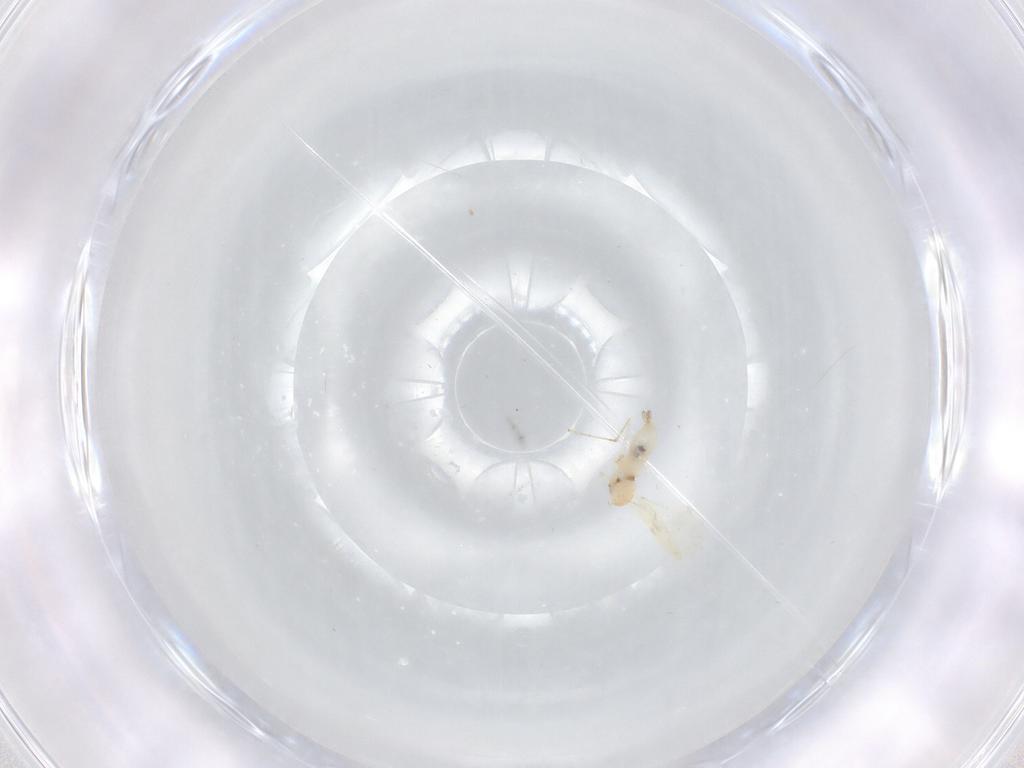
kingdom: Animalia
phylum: Arthropoda
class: Insecta
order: Diptera
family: Cecidomyiidae
